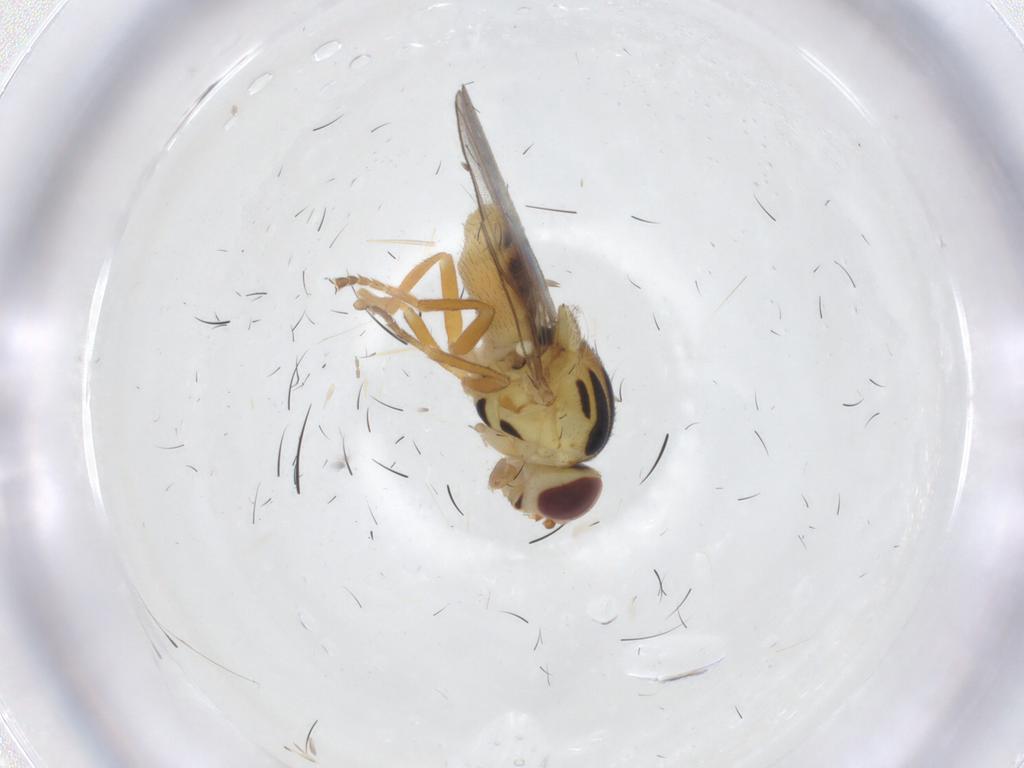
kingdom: Animalia
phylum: Arthropoda
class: Insecta
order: Diptera
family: Chloropidae
